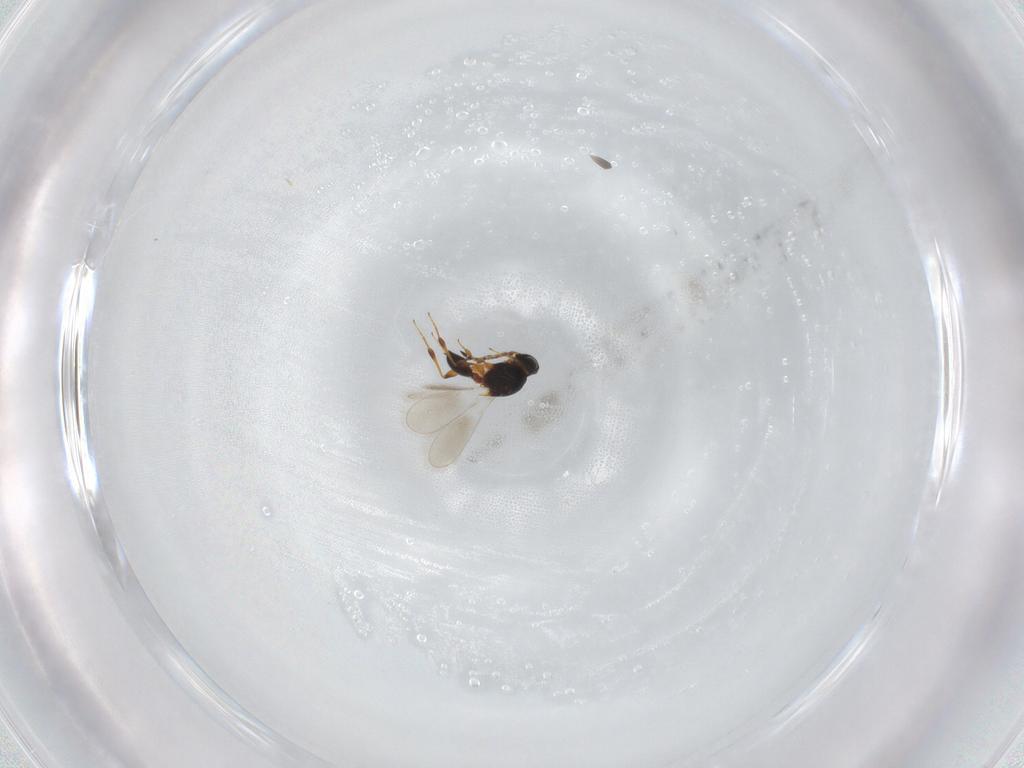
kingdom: Animalia
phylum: Arthropoda
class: Insecta
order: Hymenoptera
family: Platygastridae
